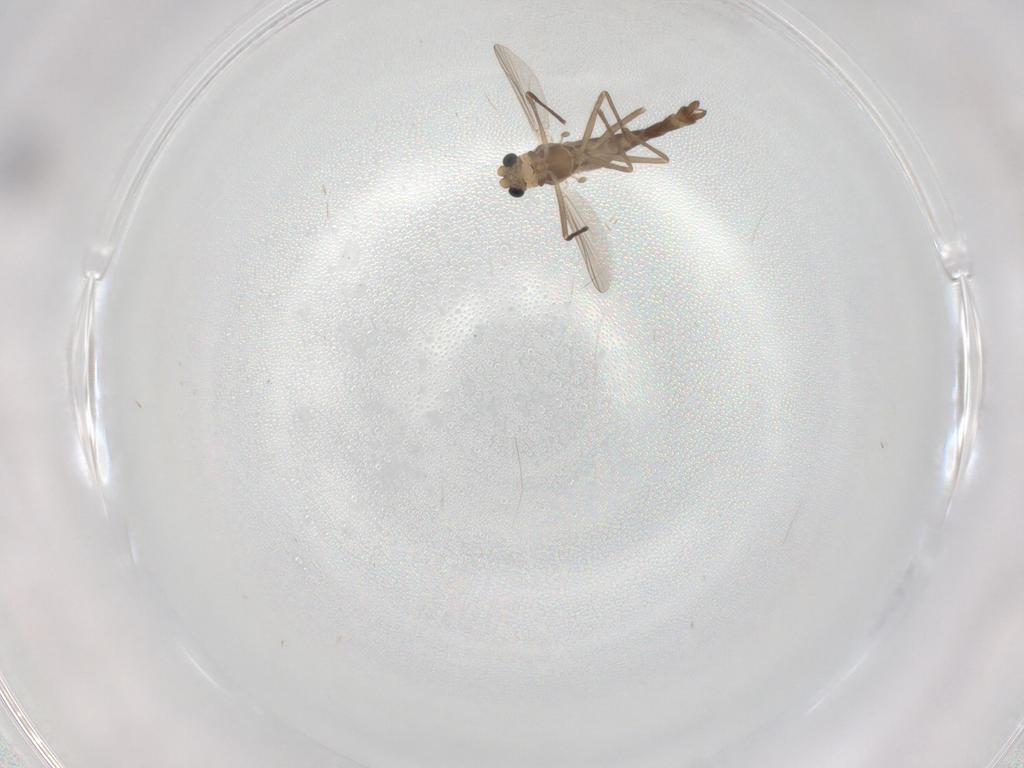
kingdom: Animalia
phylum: Arthropoda
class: Insecta
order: Diptera
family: Chironomidae
